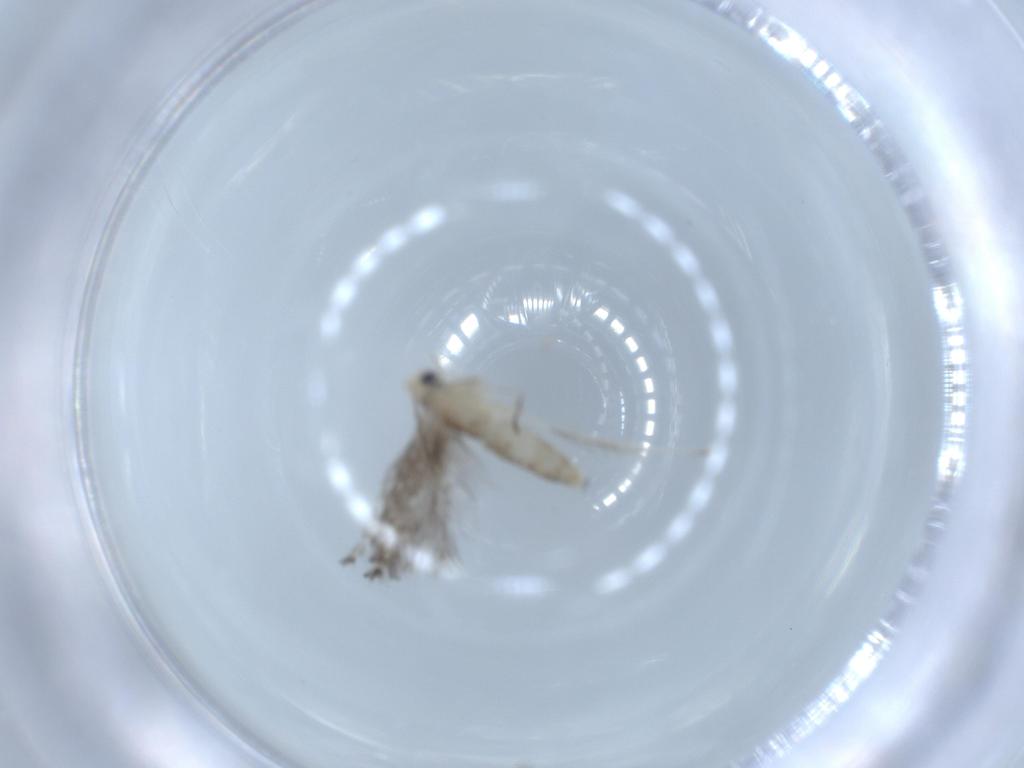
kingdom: Animalia
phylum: Arthropoda
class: Insecta
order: Lepidoptera
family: Gracillariidae
